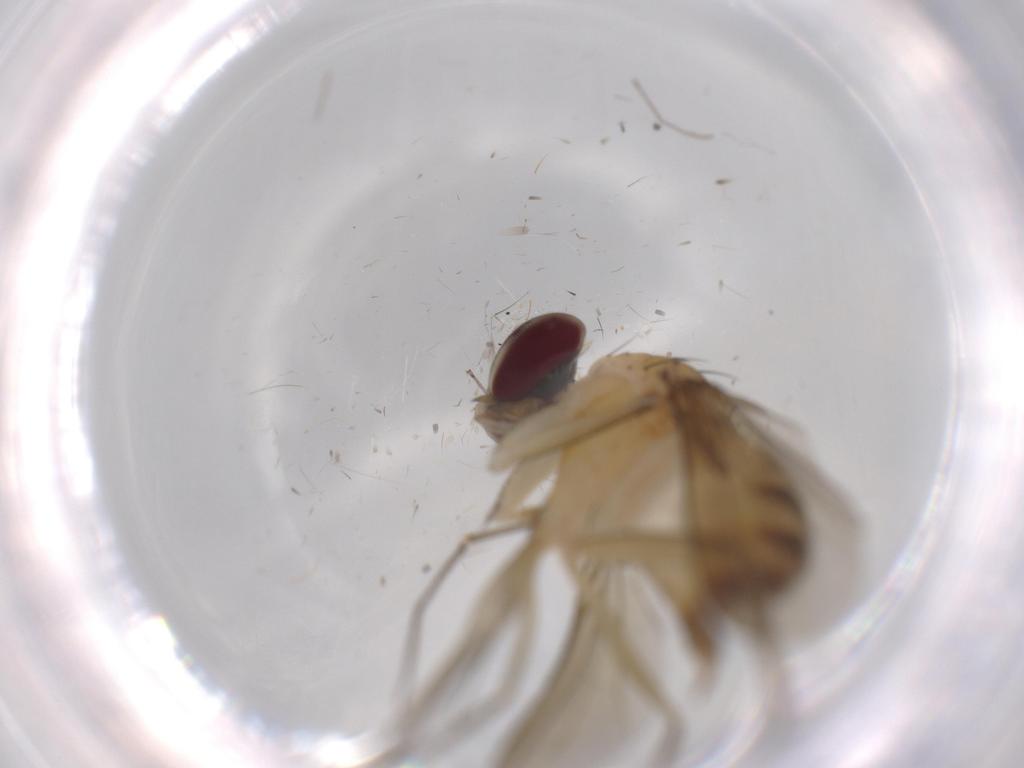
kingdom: Animalia
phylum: Arthropoda
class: Insecta
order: Diptera
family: Dolichopodidae
